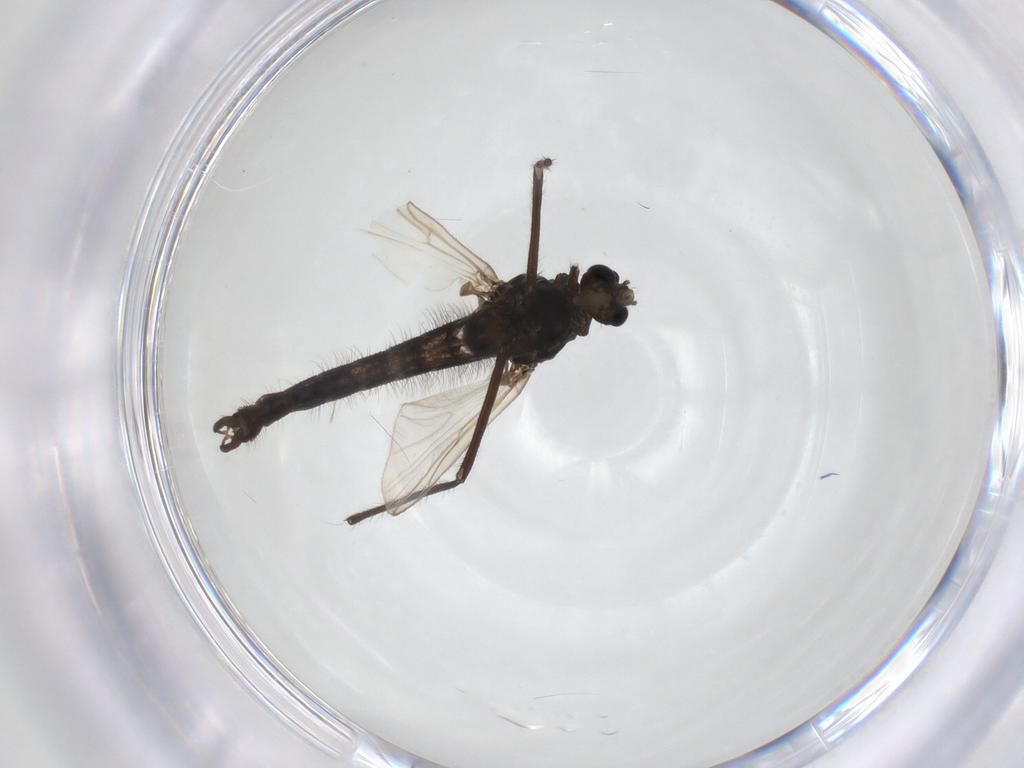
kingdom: Animalia
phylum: Arthropoda
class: Insecta
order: Diptera
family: Chironomidae
